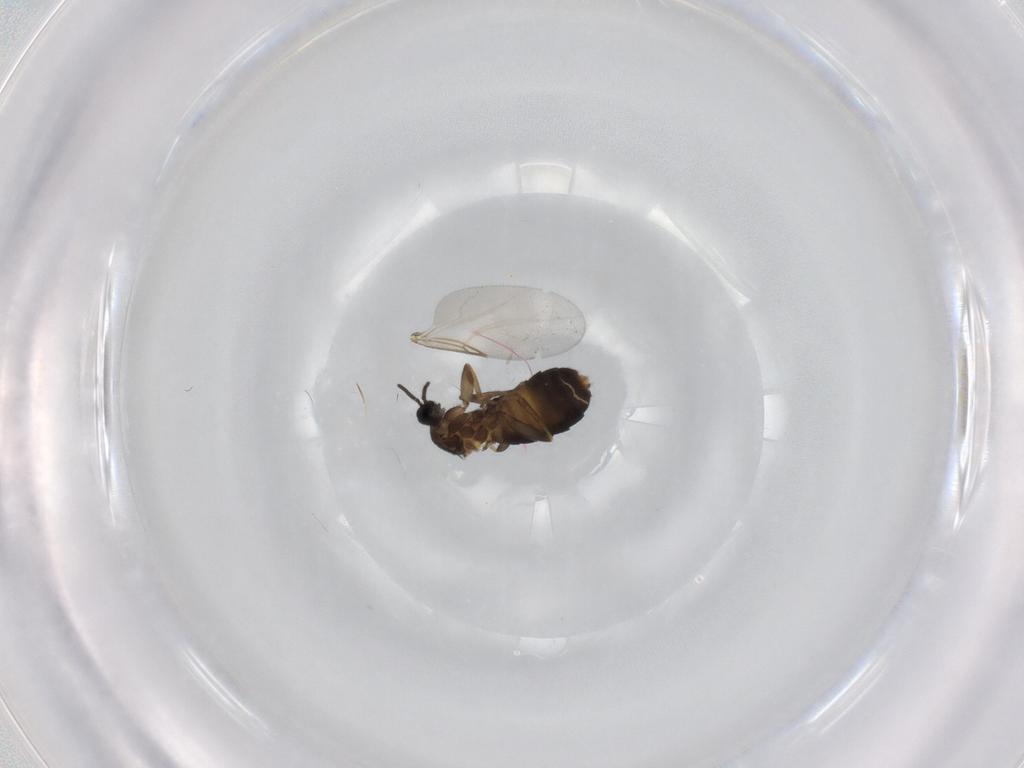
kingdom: Animalia
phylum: Arthropoda
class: Insecta
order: Diptera
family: Scatopsidae
